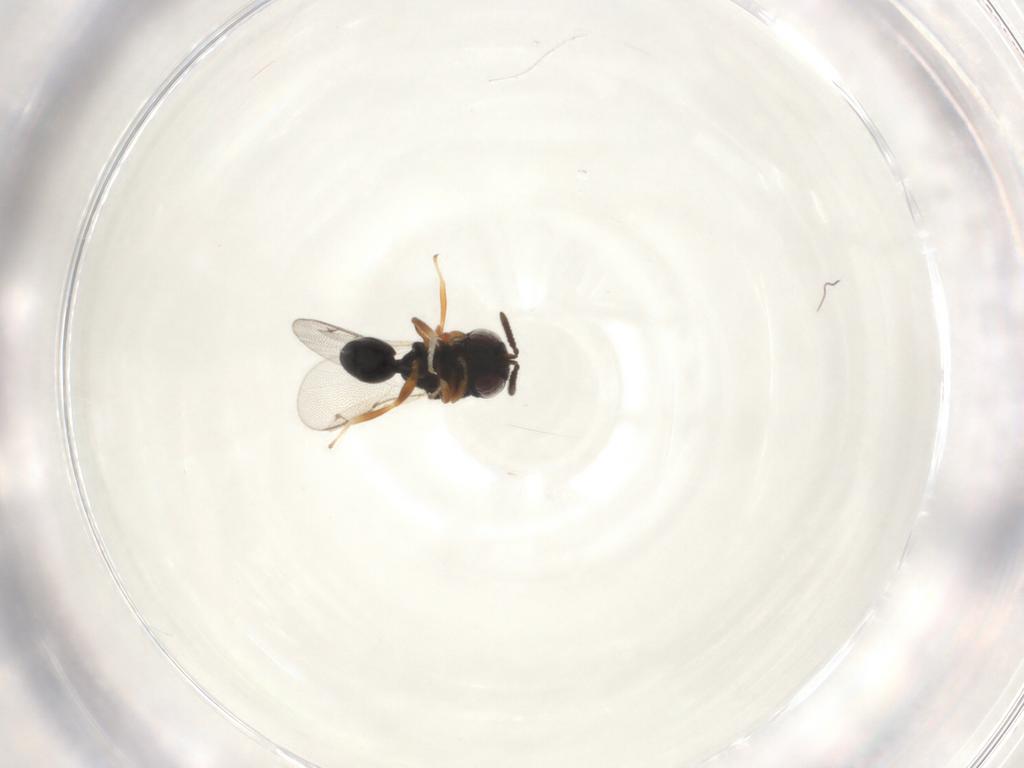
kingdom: Animalia
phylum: Arthropoda
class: Insecta
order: Hymenoptera
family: Eurytomidae
